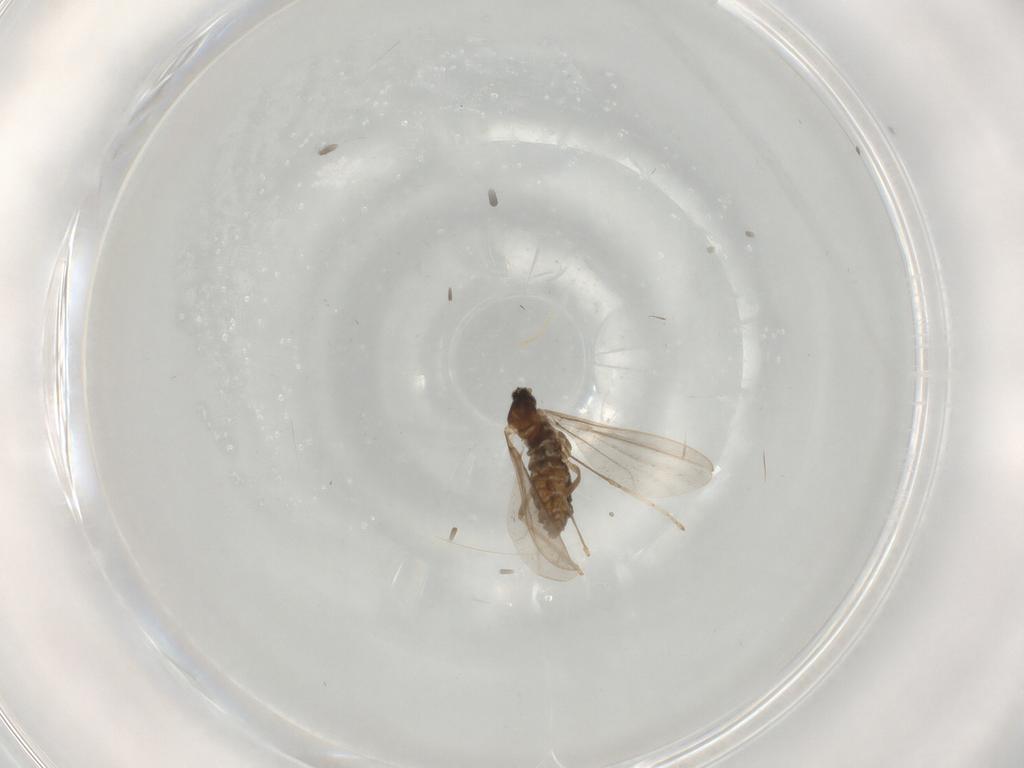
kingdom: Animalia
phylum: Arthropoda
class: Insecta
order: Diptera
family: Cecidomyiidae
